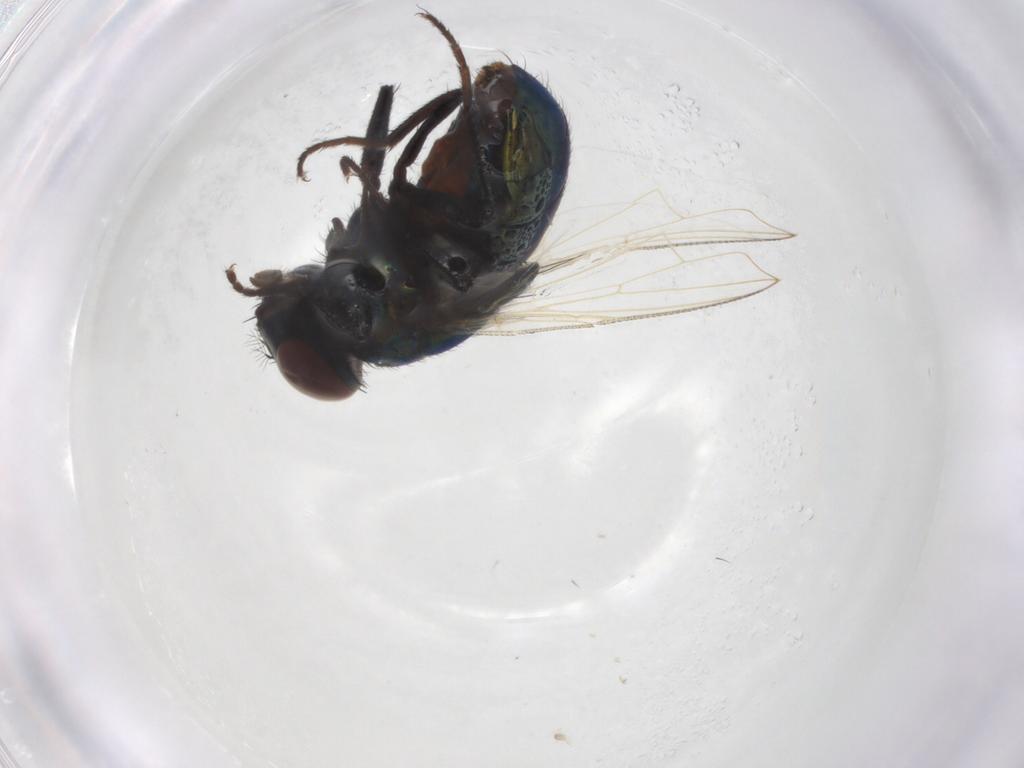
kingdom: Animalia
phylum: Arthropoda
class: Insecta
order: Diptera
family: Muscidae
